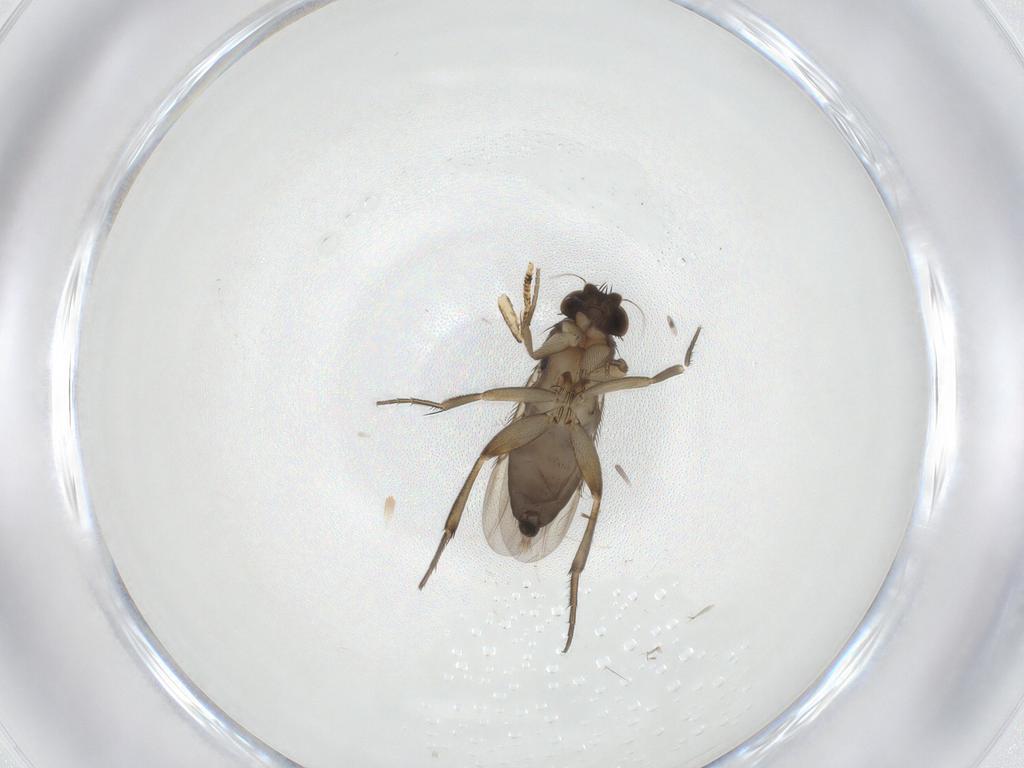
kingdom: Animalia
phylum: Arthropoda
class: Insecta
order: Diptera
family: Phoridae
